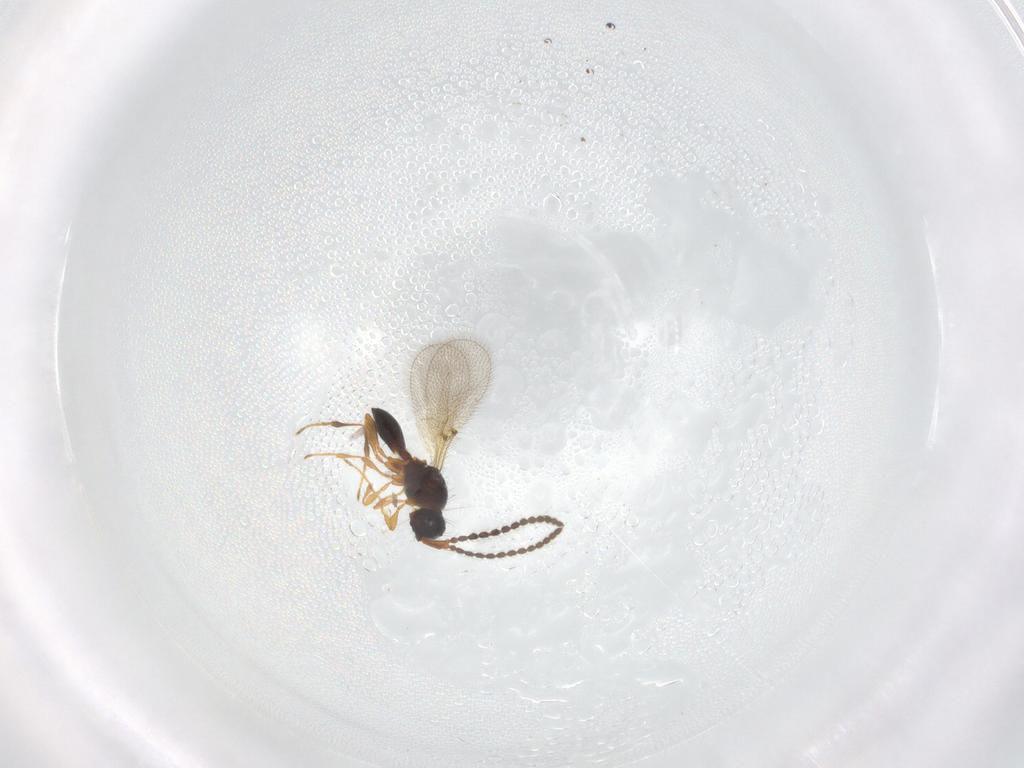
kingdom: Animalia
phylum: Arthropoda
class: Insecta
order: Hymenoptera
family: Diapriidae
